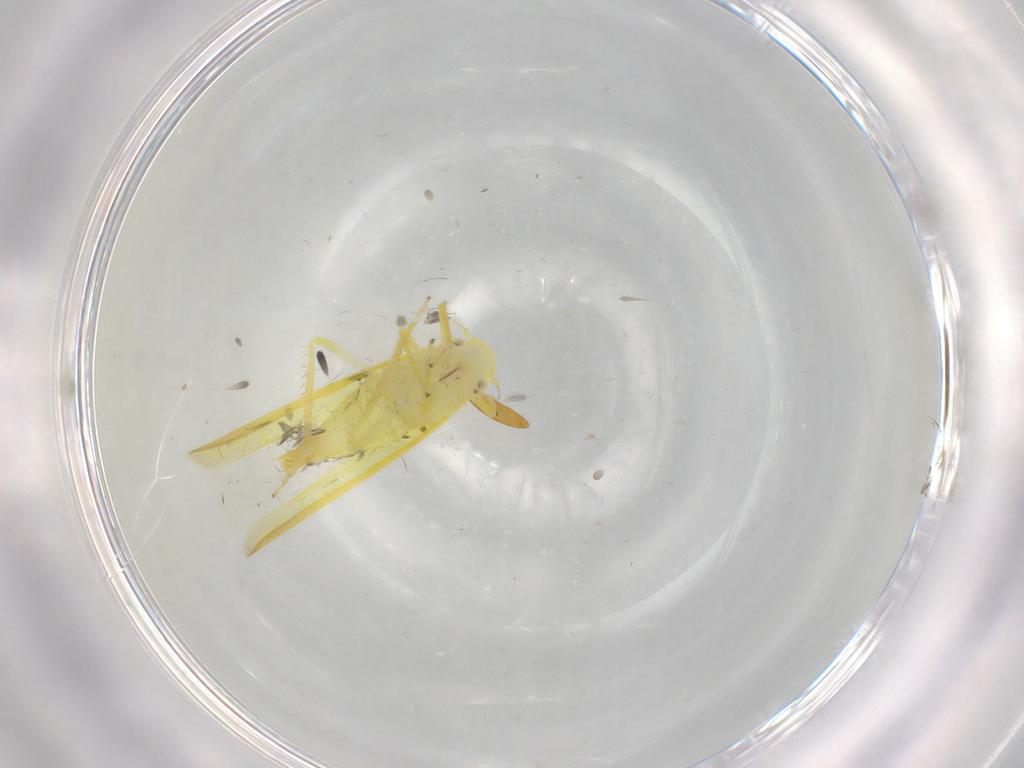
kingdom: Animalia
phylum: Arthropoda
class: Insecta
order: Hemiptera
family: Cicadellidae
